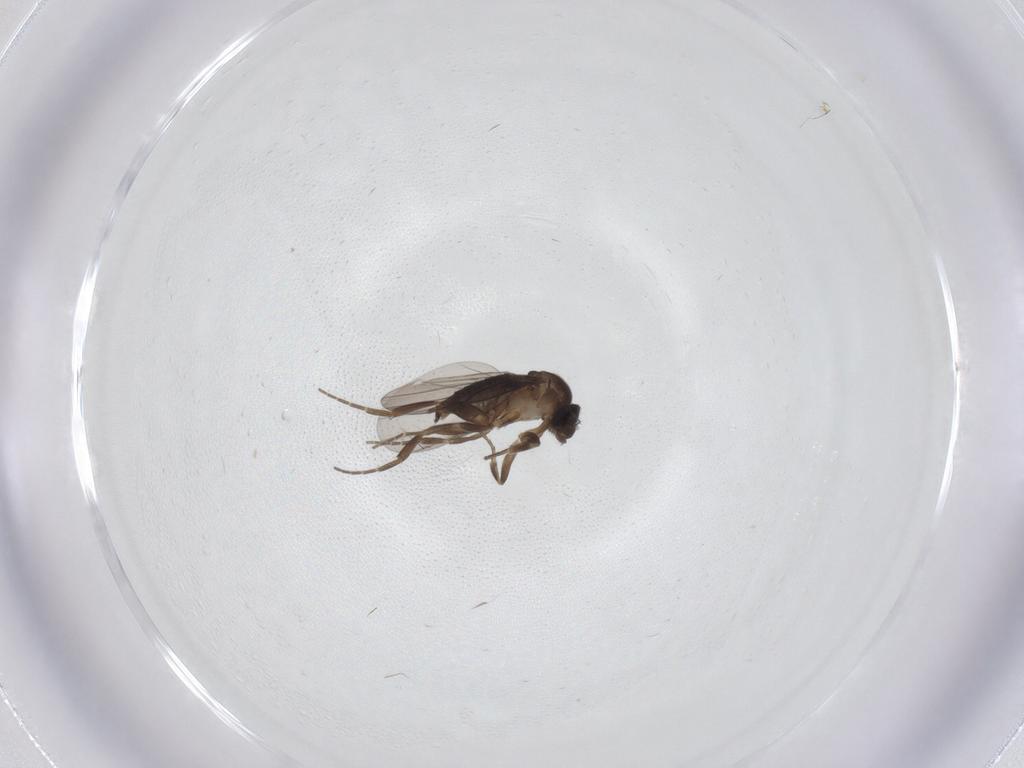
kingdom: Animalia
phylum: Arthropoda
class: Insecta
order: Diptera
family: Phoridae
